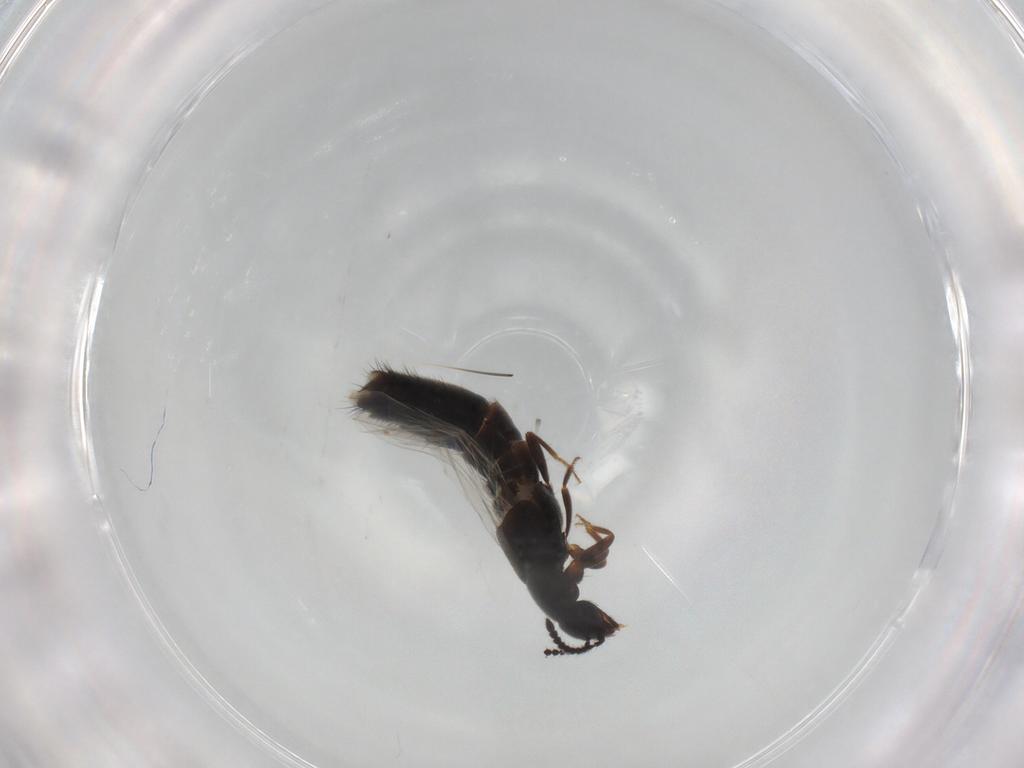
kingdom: Animalia
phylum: Arthropoda
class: Insecta
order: Coleoptera
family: Staphylinidae
